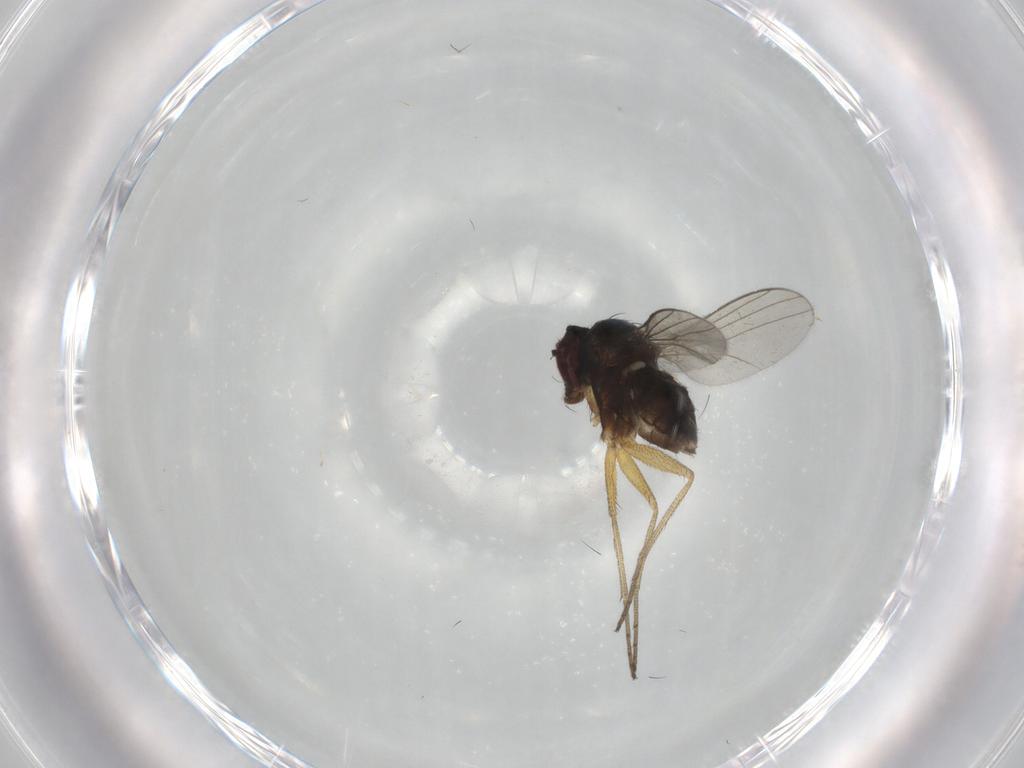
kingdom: Animalia
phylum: Arthropoda
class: Insecta
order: Diptera
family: Dolichopodidae
